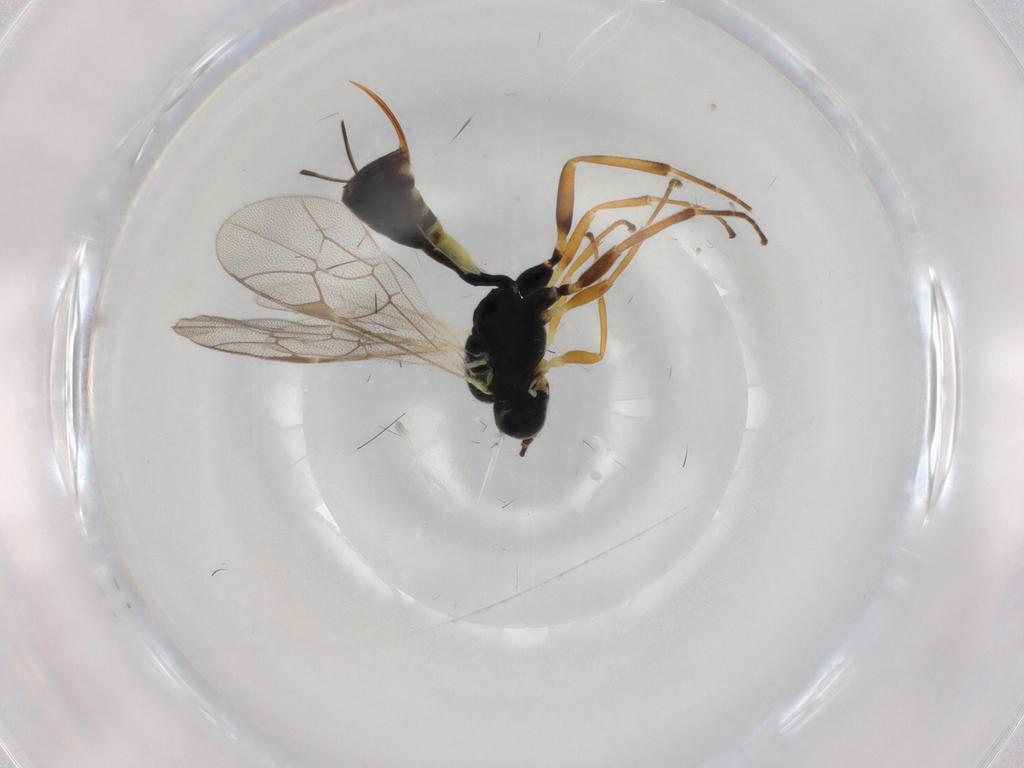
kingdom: Animalia
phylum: Arthropoda
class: Insecta
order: Hymenoptera
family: Ichneumonidae
